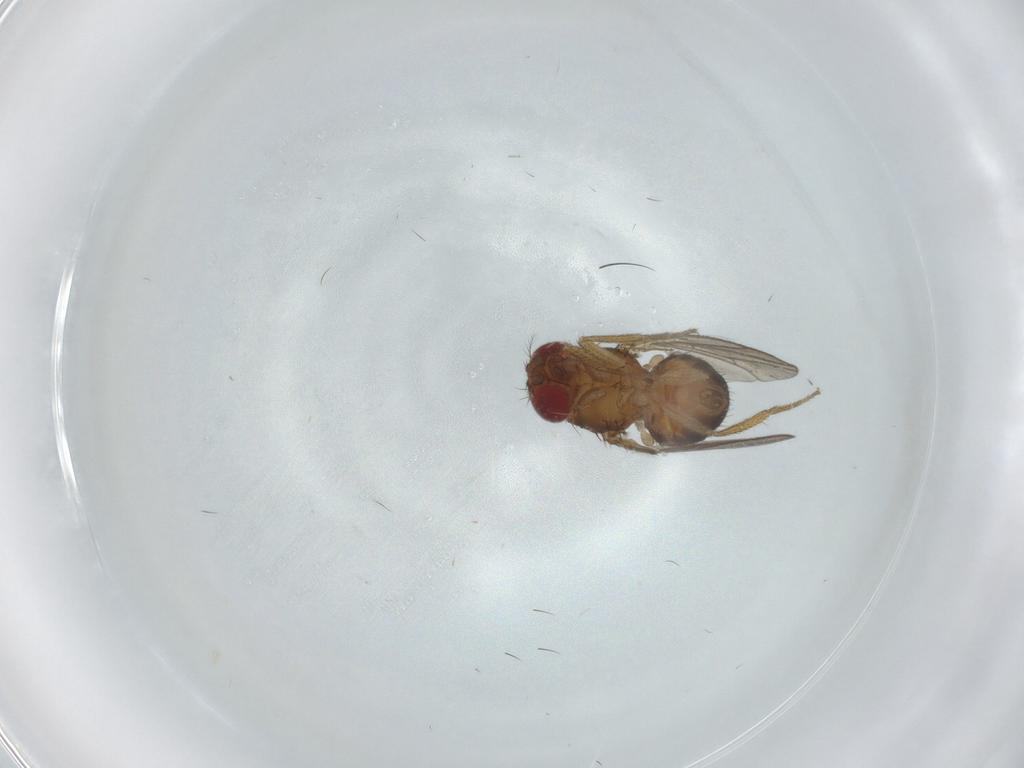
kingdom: Animalia
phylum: Arthropoda
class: Insecta
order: Diptera
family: Drosophilidae
